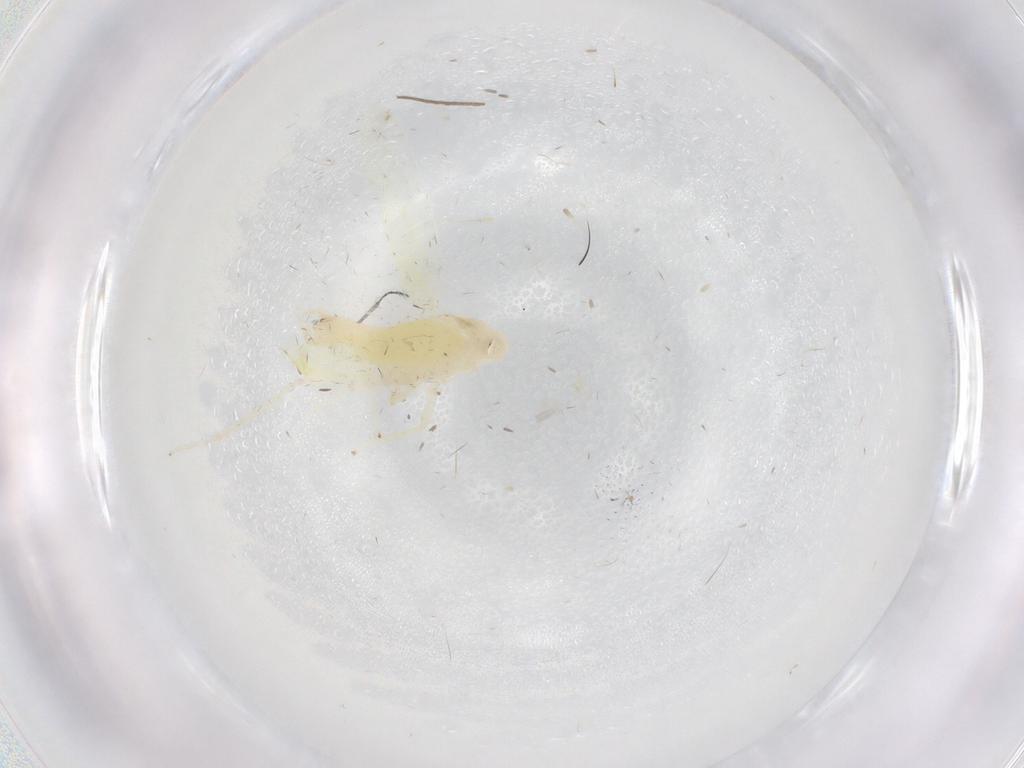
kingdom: Animalia
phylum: Arthropoda
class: Insecta
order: Hemiptera
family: Cicadellidae
